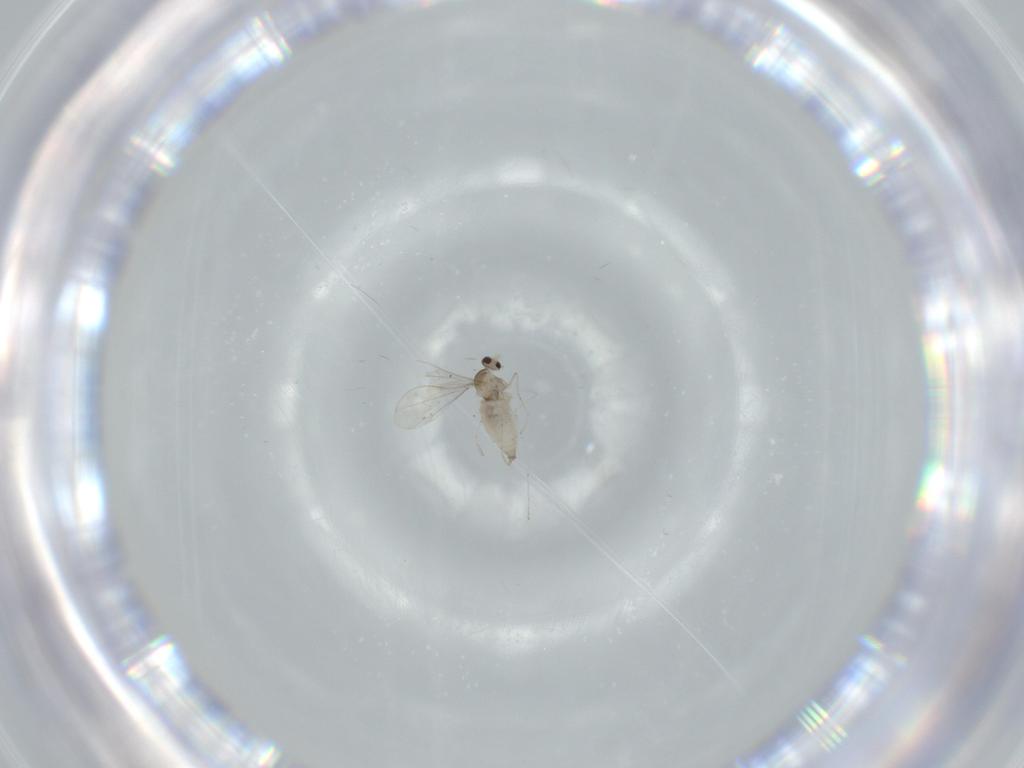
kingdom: Animalia
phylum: Arthropoda
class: Insecta
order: Diptera
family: Cecidomyiidae
